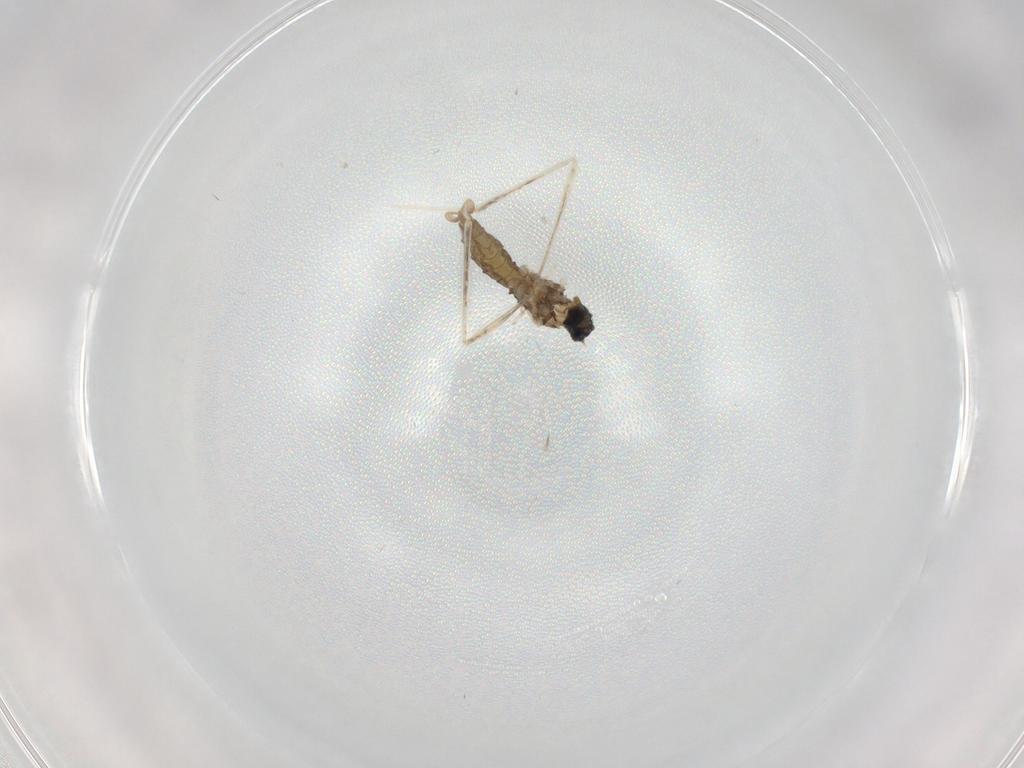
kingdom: Animalia
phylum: Arthropoda
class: Insecta
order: Diptera
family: Cecidomyiidae
